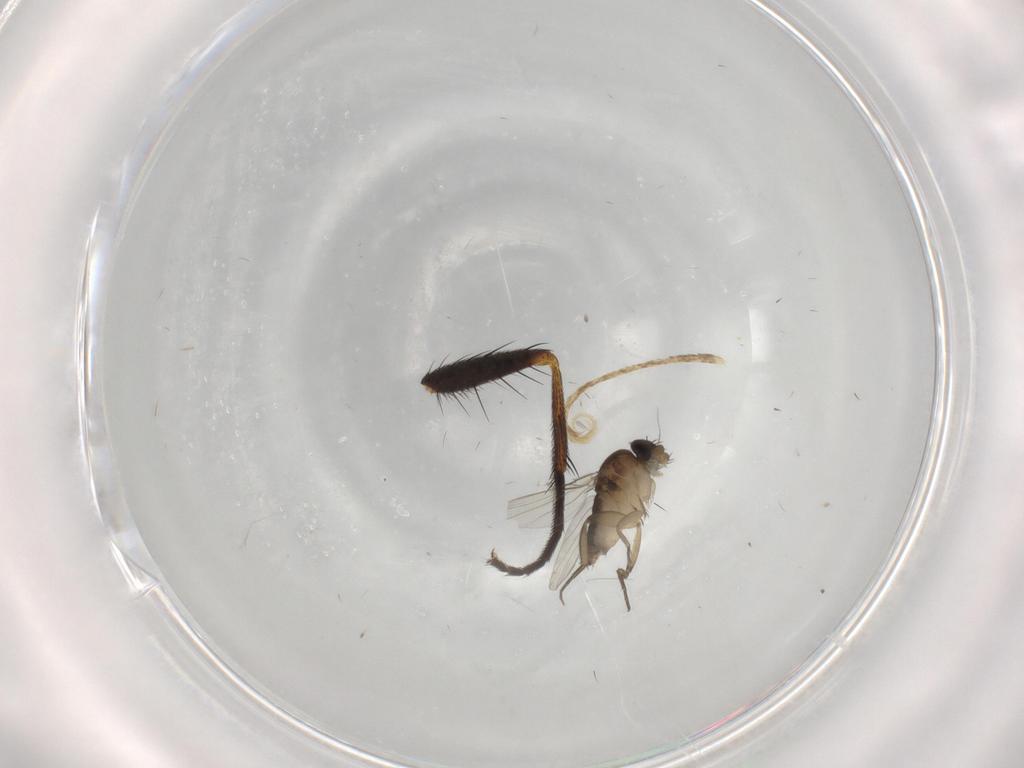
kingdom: Animalia
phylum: Arthropoda
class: Insecta
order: Diptera
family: Phoridae
